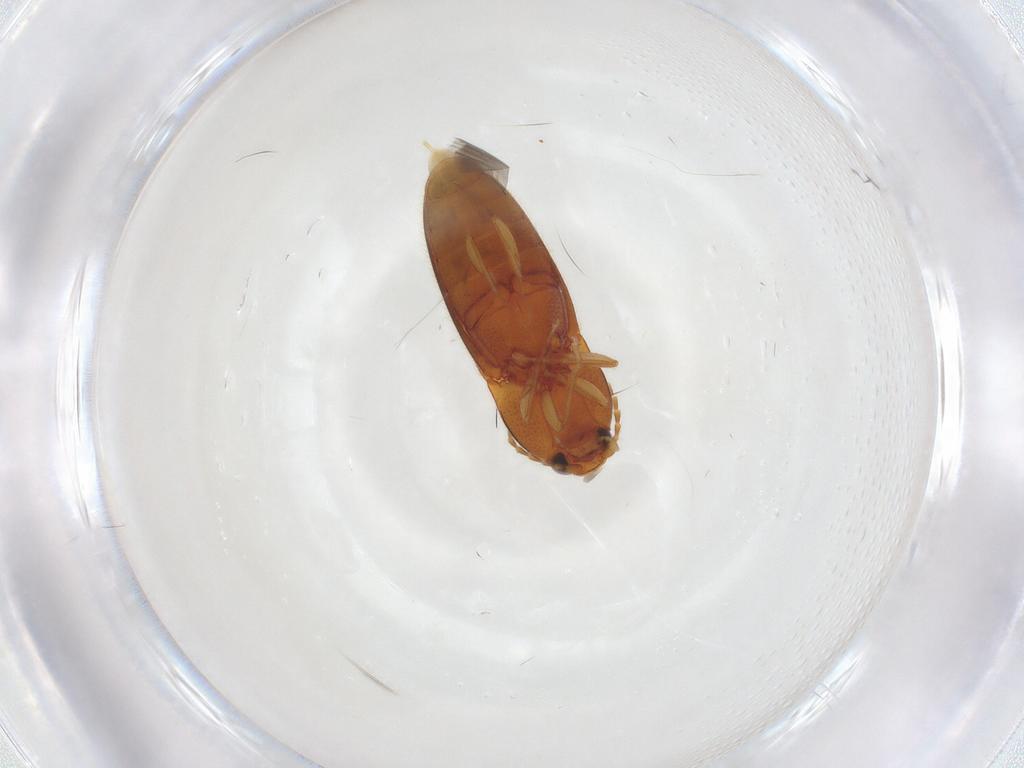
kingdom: Animalia
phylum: Arthropoda
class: Insecta
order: Coleoptera
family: Elateridae
